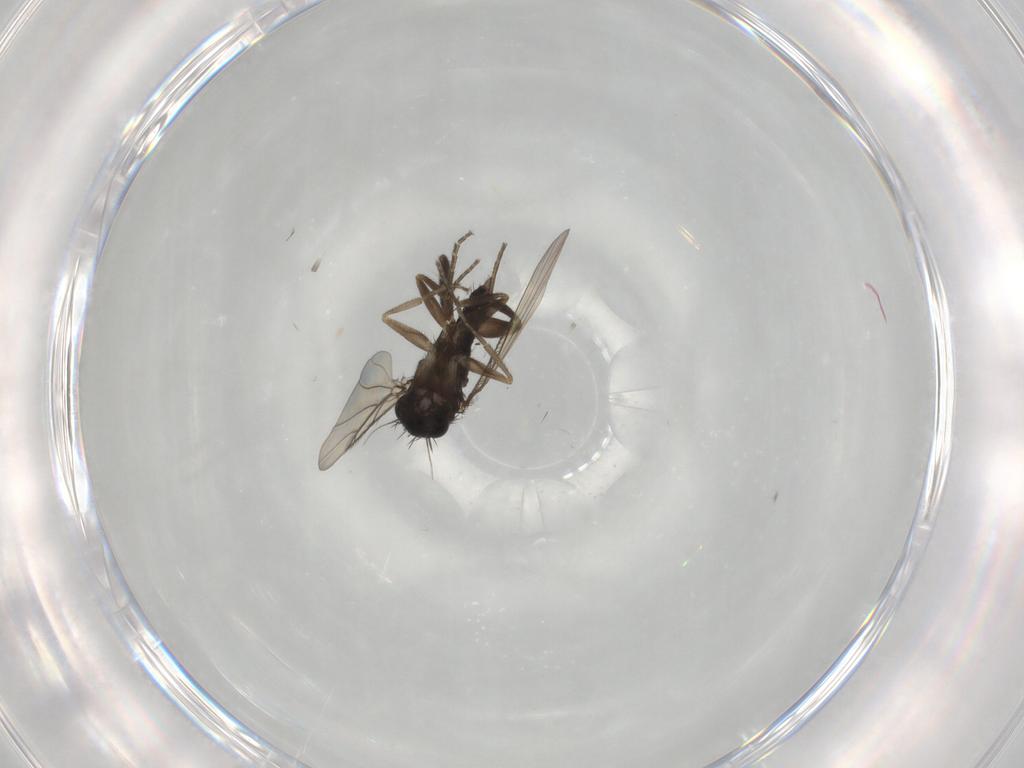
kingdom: Animalia
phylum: Arthropoda
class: Insecta
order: Diptera
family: Phoridae
